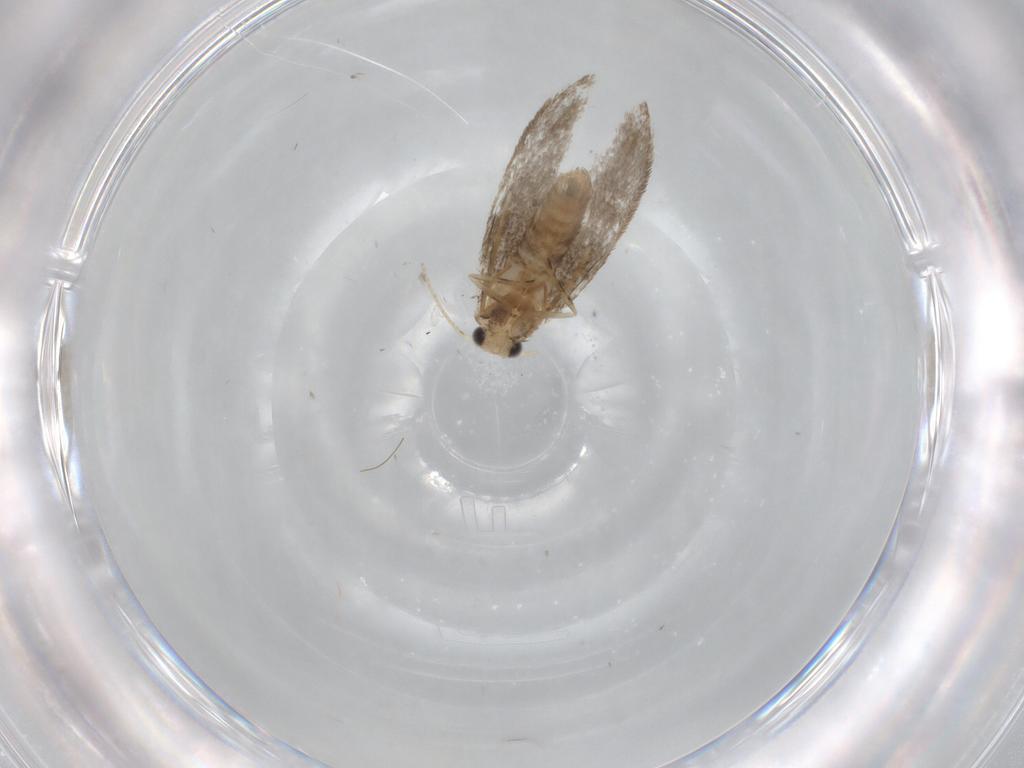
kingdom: Animalia
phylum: Arthropoda
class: Insecta
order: Lepidoptera
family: Tineidae
